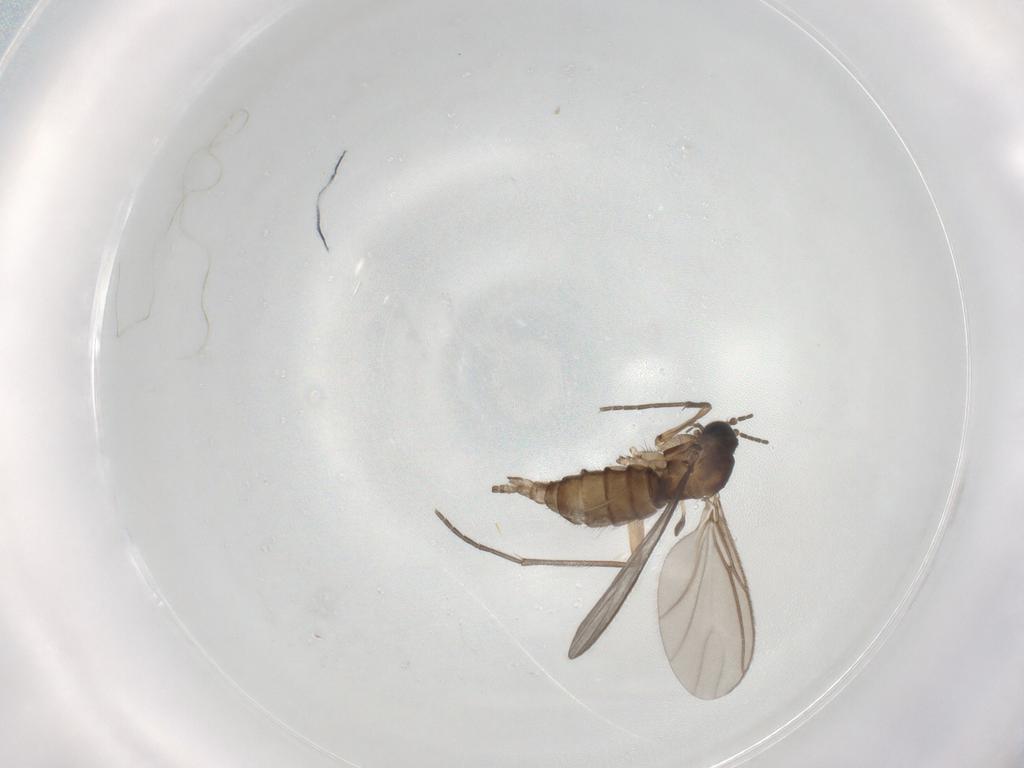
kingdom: Animalia
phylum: Arthropoda
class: Insecta
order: Diptera
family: Sciaridae
